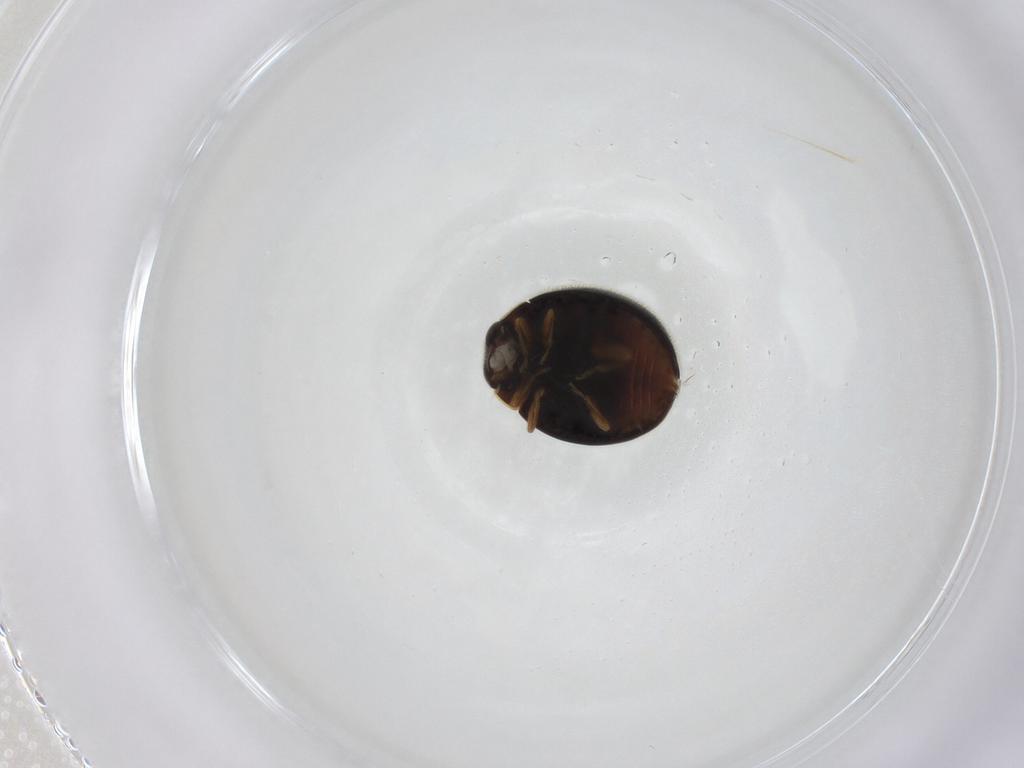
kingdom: Animalia
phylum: Arthropoda
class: Insecta
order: Coleoptera
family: Coccinellidae
